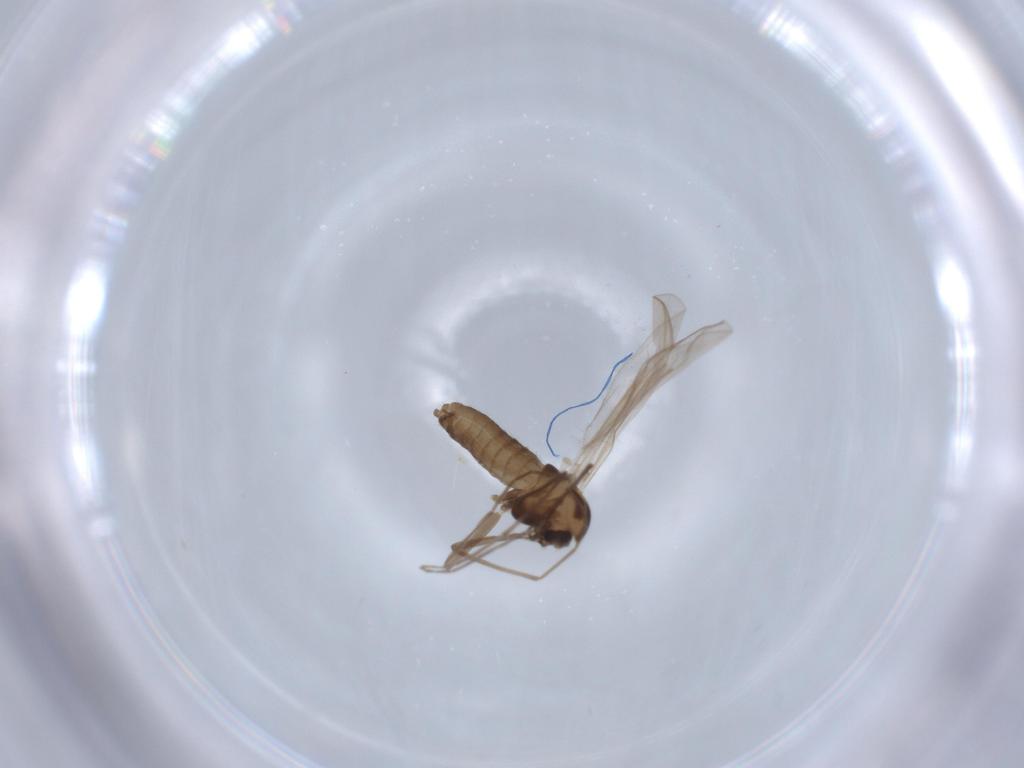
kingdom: Animalia
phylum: Arthropoda
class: Insecta
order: Diptera
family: Chironomidae
